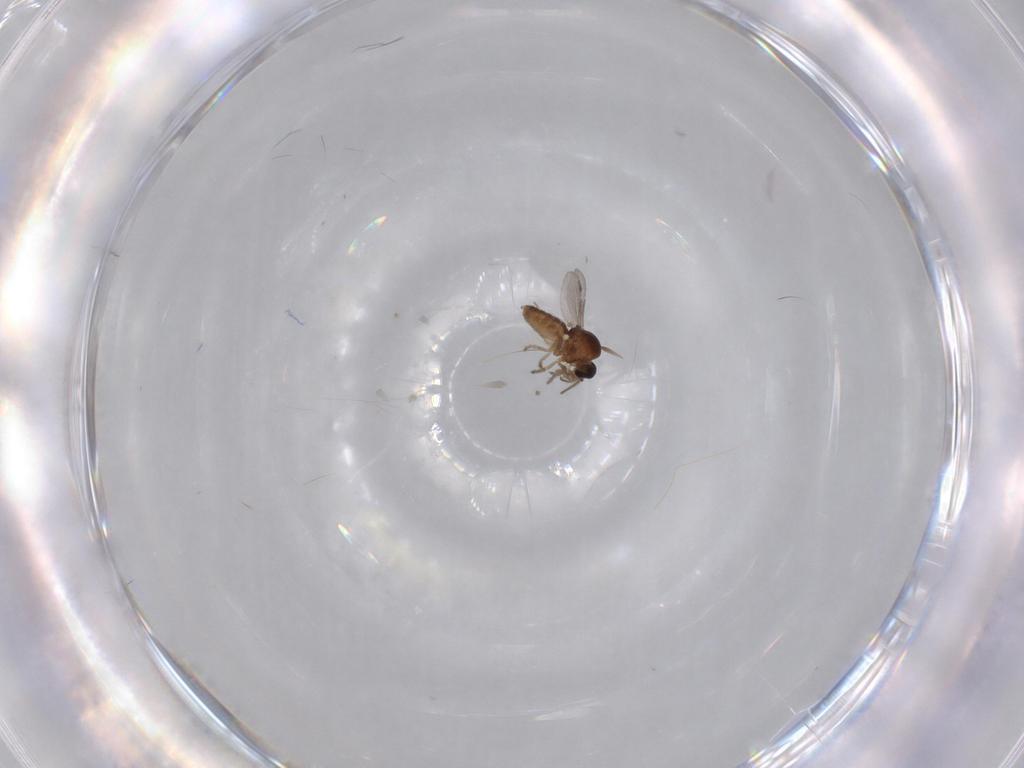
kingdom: Animalia
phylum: Arthropoda
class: Insecta
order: Diptera
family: Ceratopogonidae
